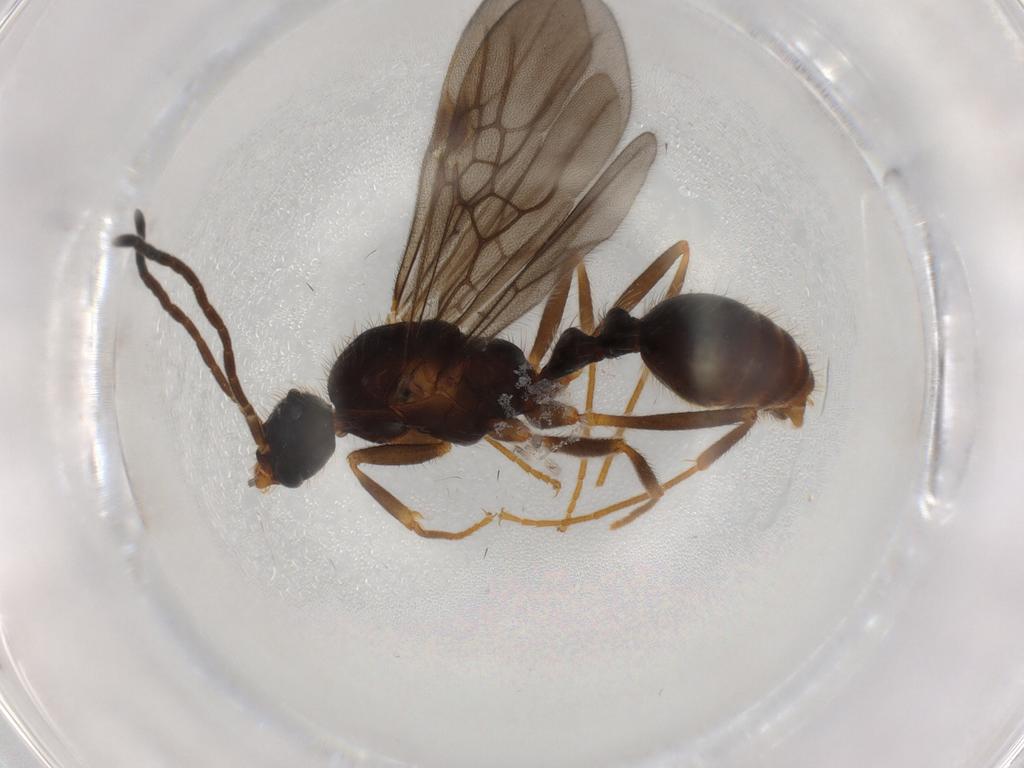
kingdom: Animalia
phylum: Arthropoda
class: Insecta
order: Hymenoptera
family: Formicidae
